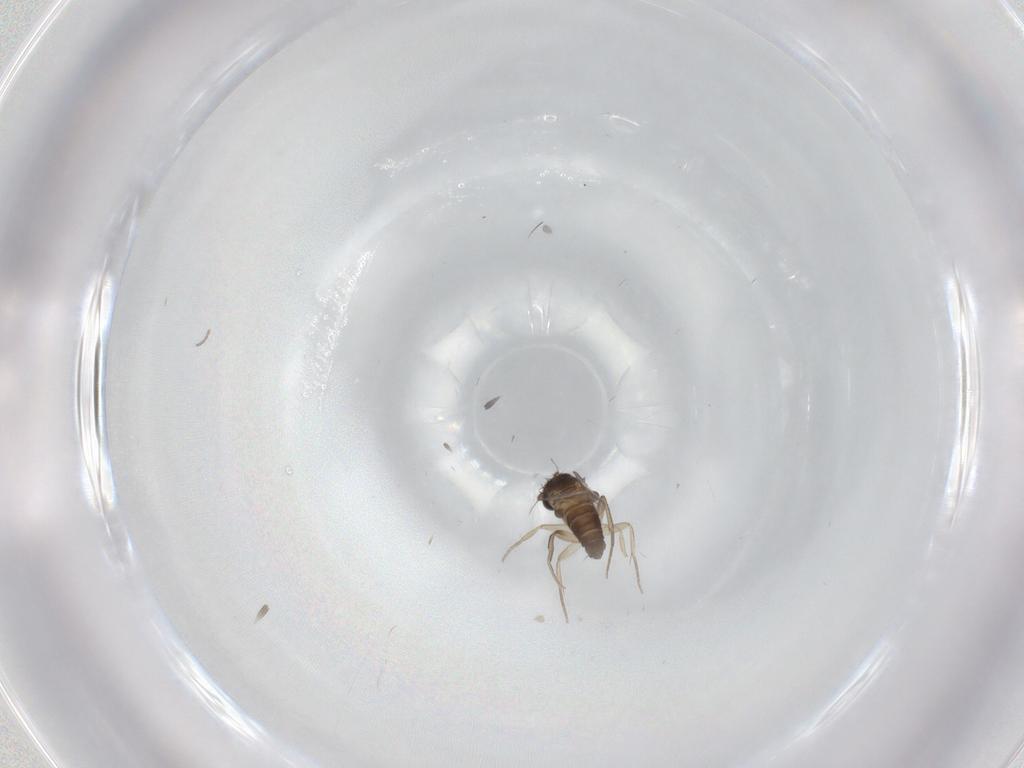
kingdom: Animalia
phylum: Arthropoda
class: Insecta
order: Diptera
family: Phoridae
